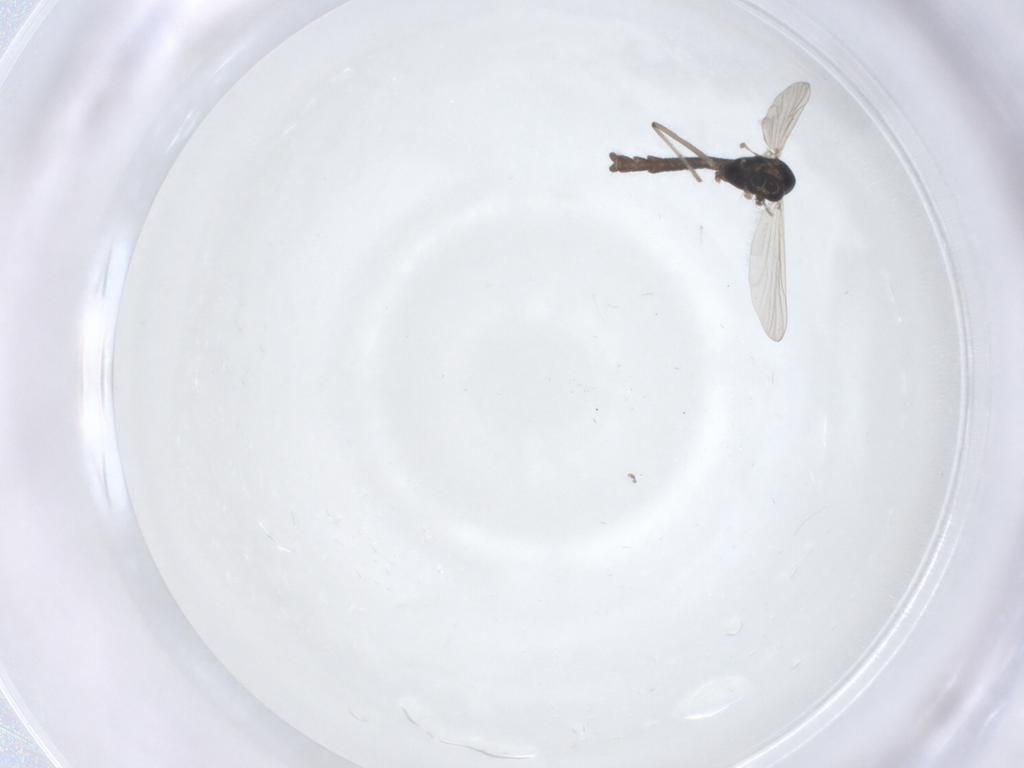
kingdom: Animalia
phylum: Arthropoda
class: Insecta
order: Diptera
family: Chironomidae
